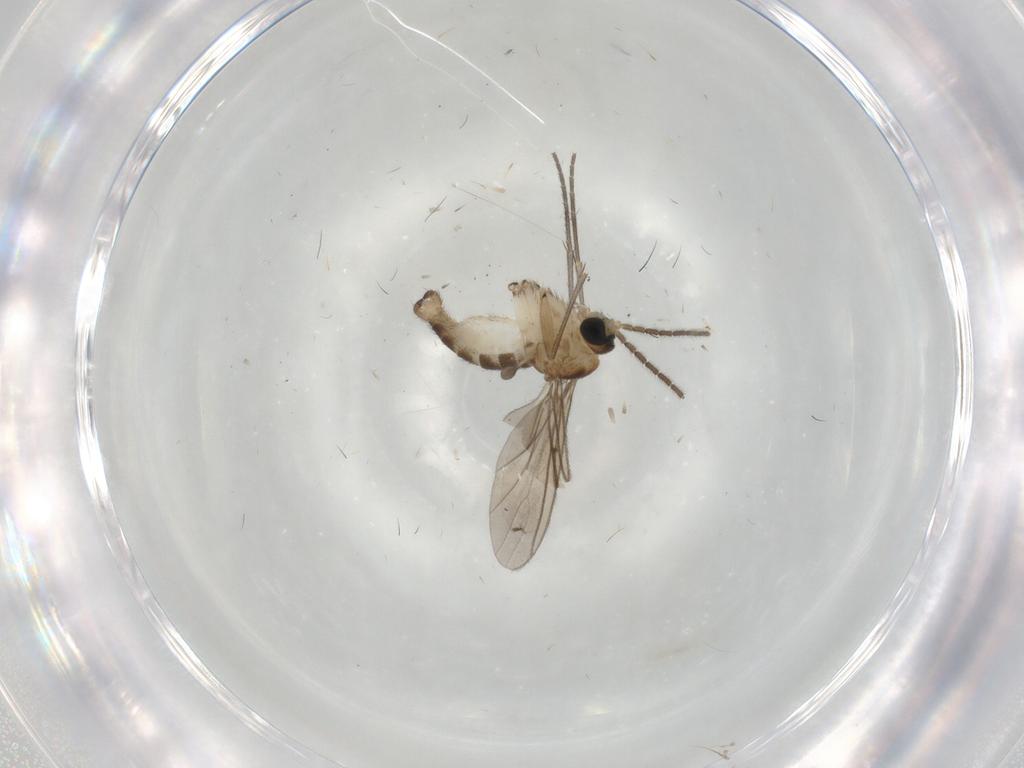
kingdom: Animalia
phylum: Arthropoda
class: Insecta
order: Diptera
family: Sciaridae
